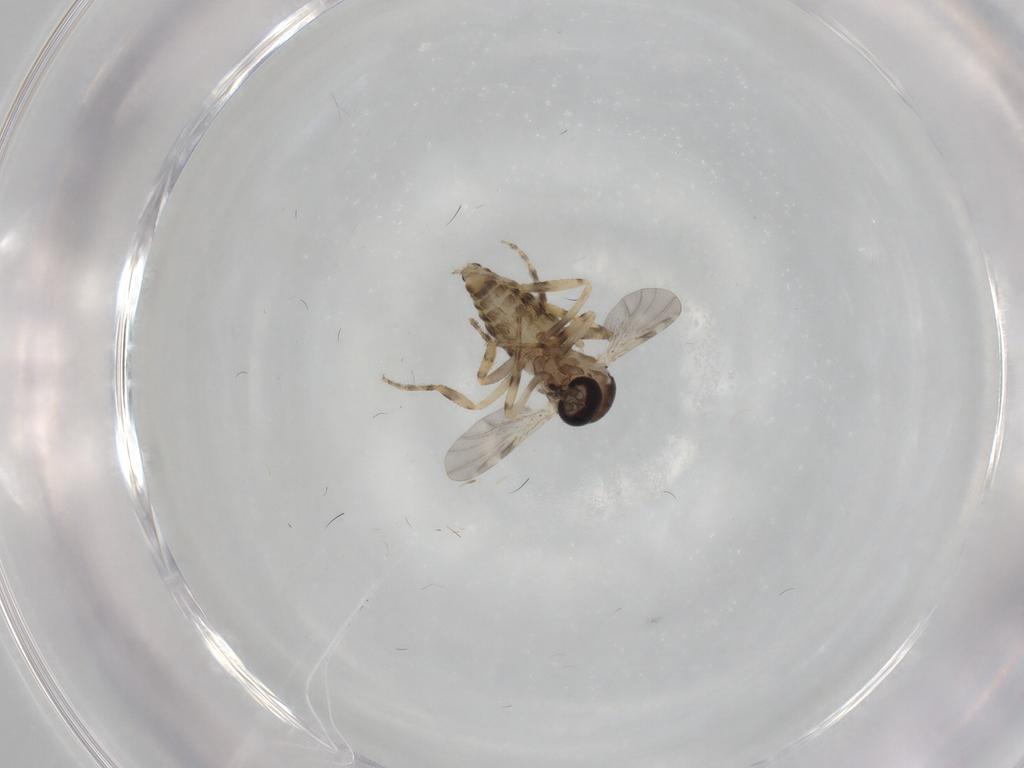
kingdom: Animalia
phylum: Arthropoda
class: Insecta
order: Diptera
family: Ceratopogonidae
